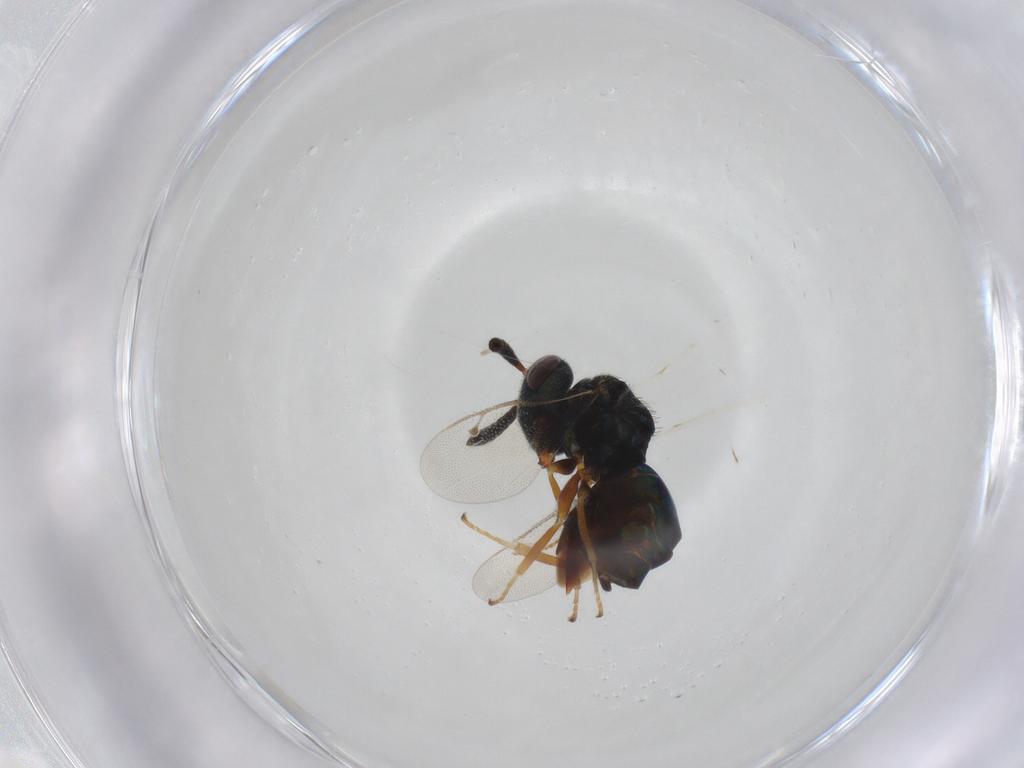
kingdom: Animalia
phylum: Arthropoda
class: Insecta
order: Hymenoptera
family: Pteromalidae
